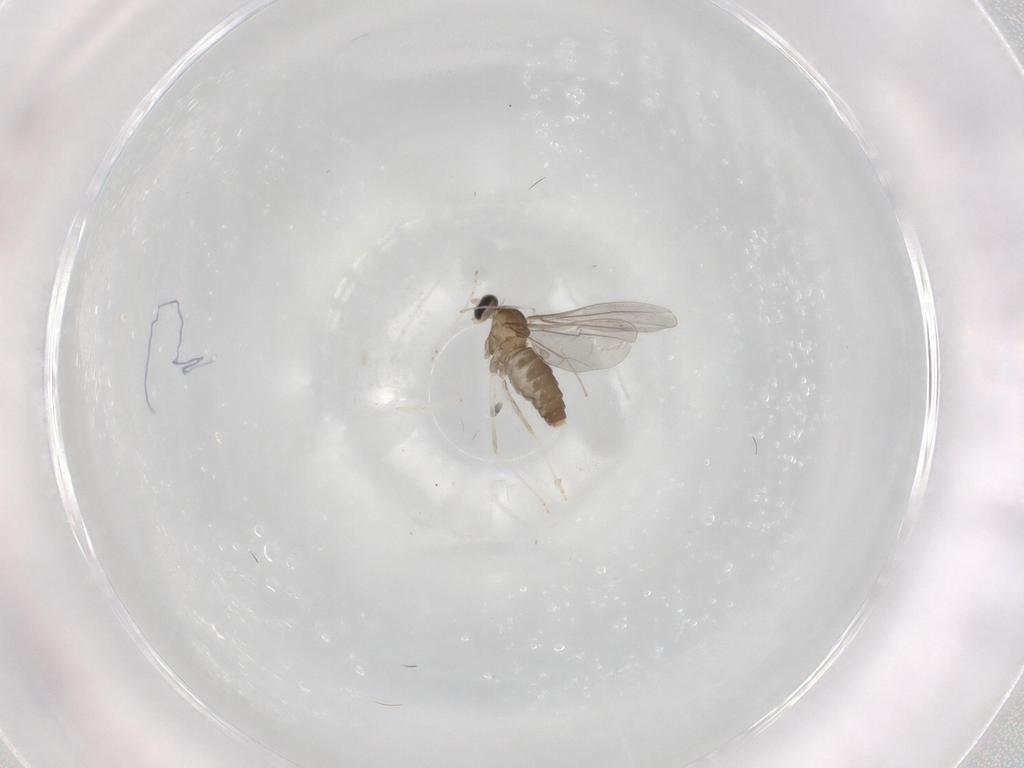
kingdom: Animalia
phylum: Arthropoda
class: Insecta
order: Diptera
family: Cecidomyiidae
